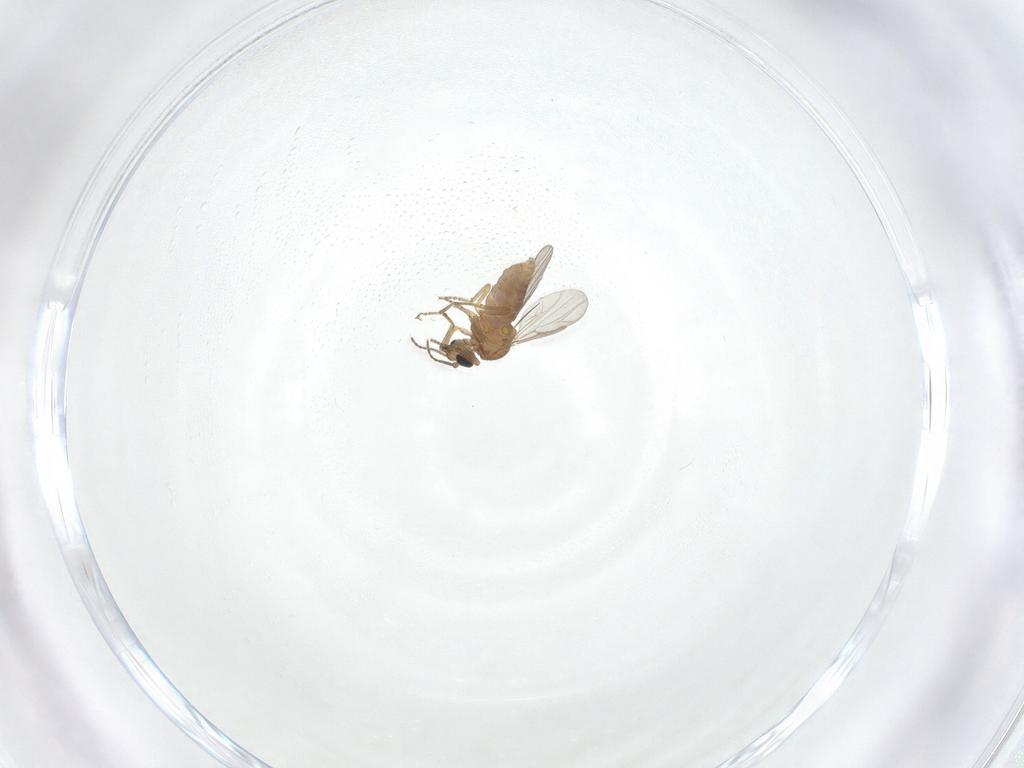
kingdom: Animalia
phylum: Arthropoda
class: Insecta
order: Diptera
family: Ceratopogonidae
